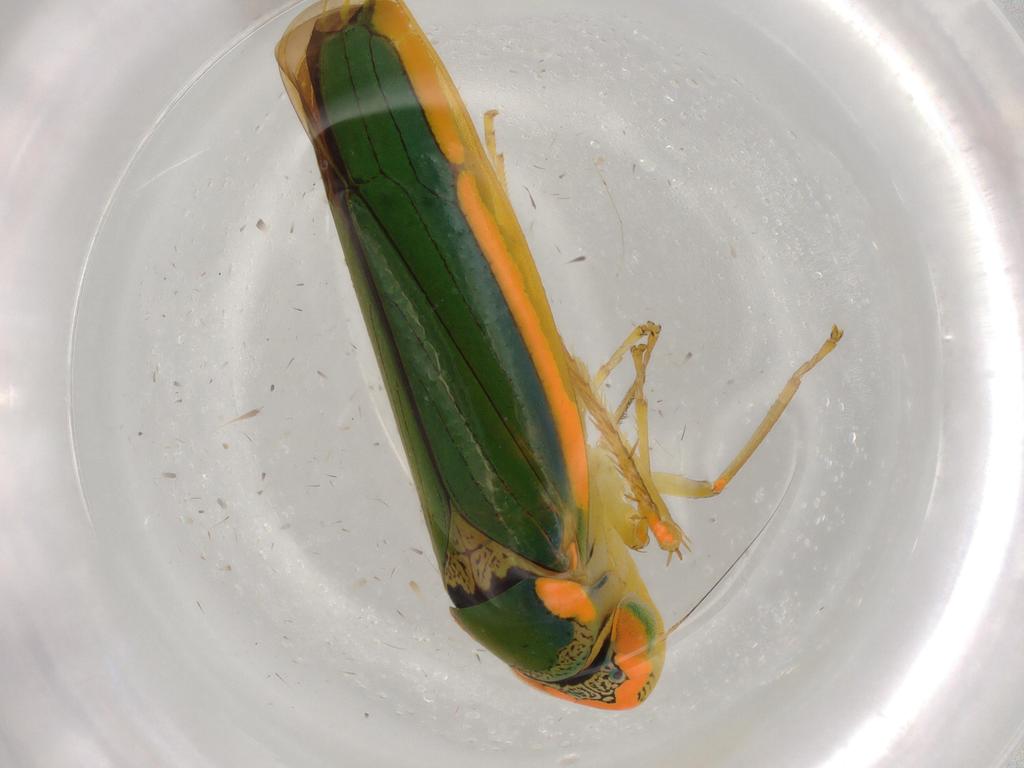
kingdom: Animalia
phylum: Arthropoda
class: Insecta
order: Hemiptera
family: Cicadellidae
